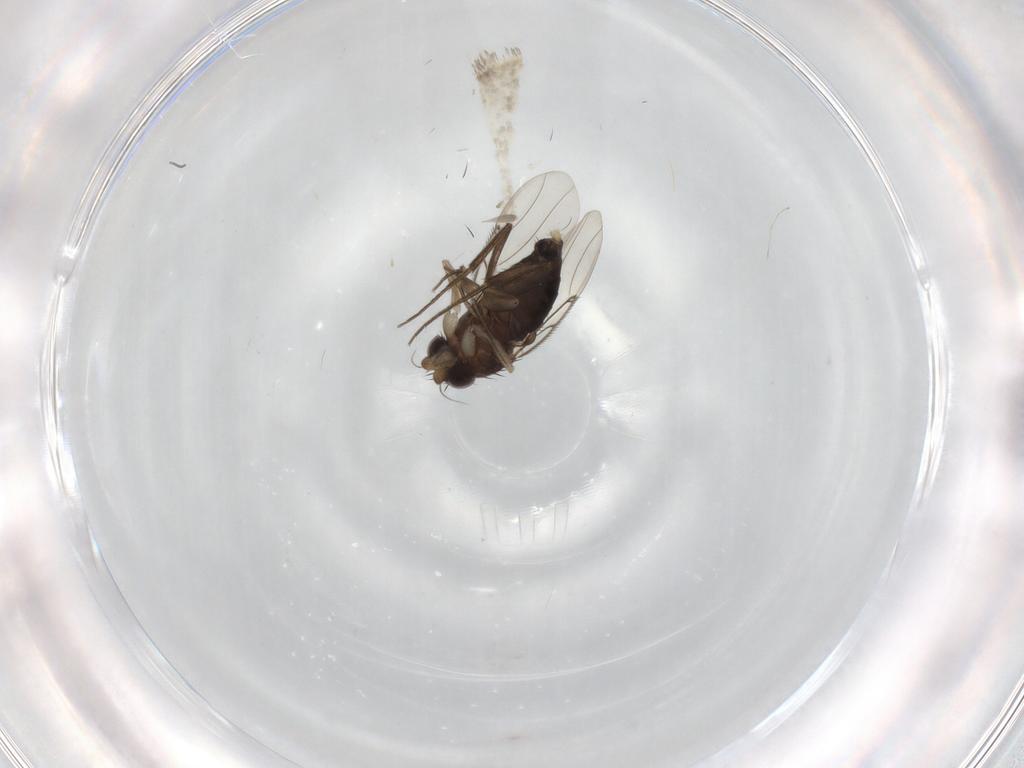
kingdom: Animalia
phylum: Arthropoda
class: Insecta
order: Diptera
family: Phoridae
